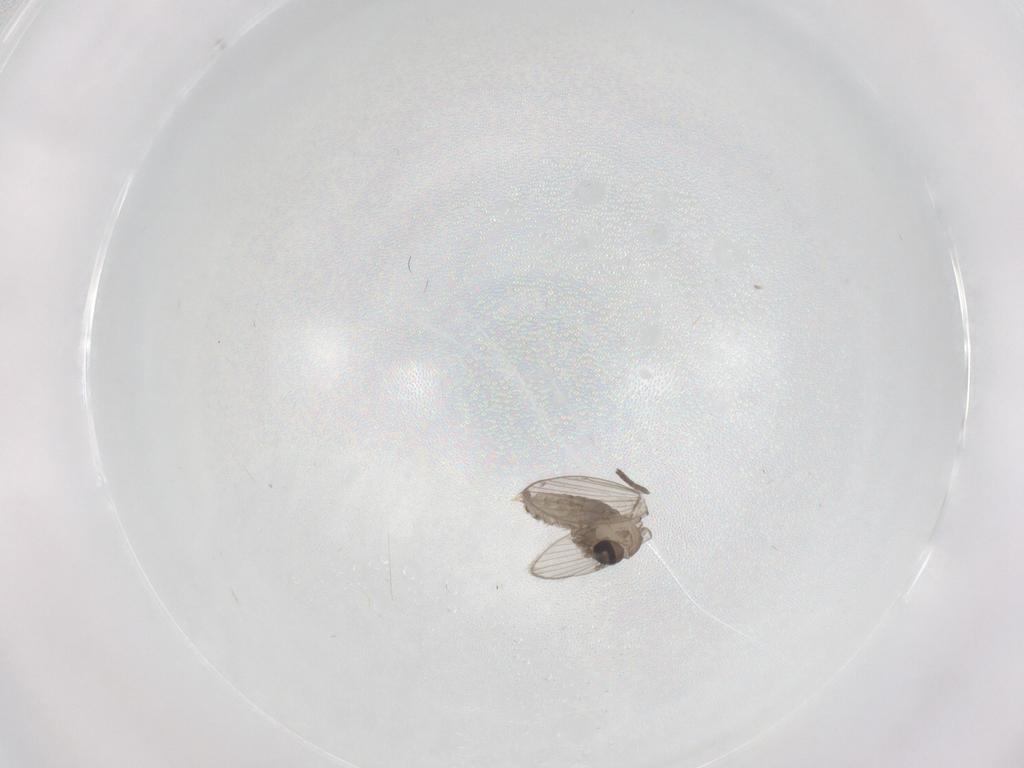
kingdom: Animalia
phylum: Arthropoda
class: Insecta
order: Diptera
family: Psychodidae
